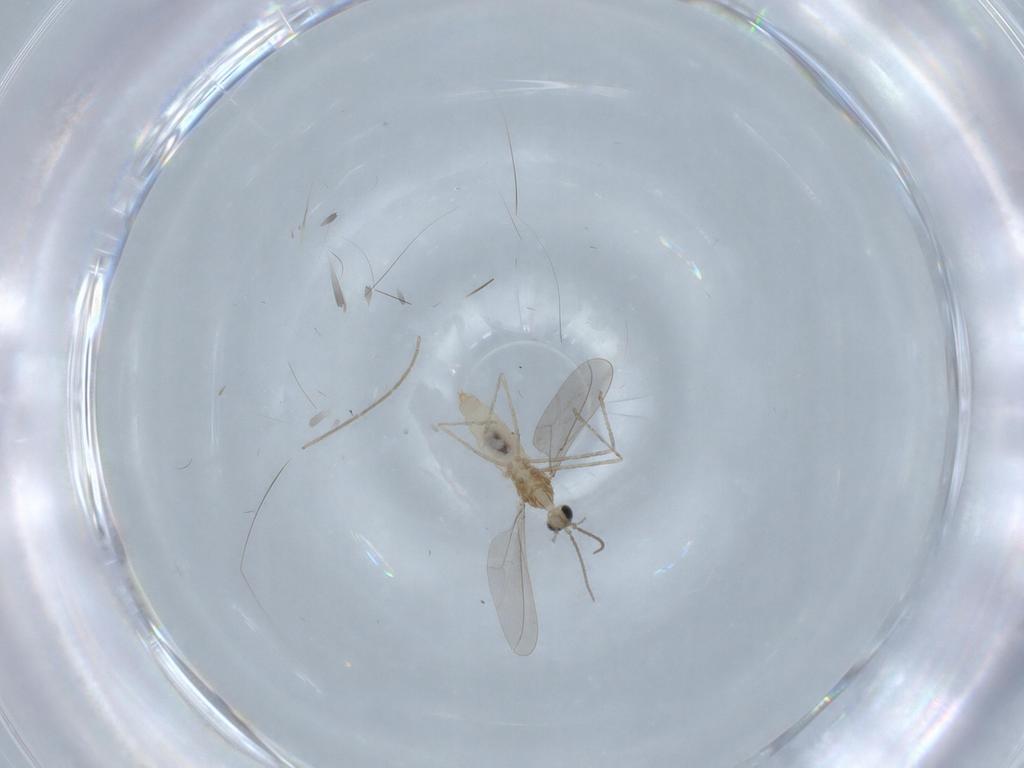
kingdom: Animalia
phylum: Arthropoda
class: Insecta
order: Diptera
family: Cecidomyiidae
